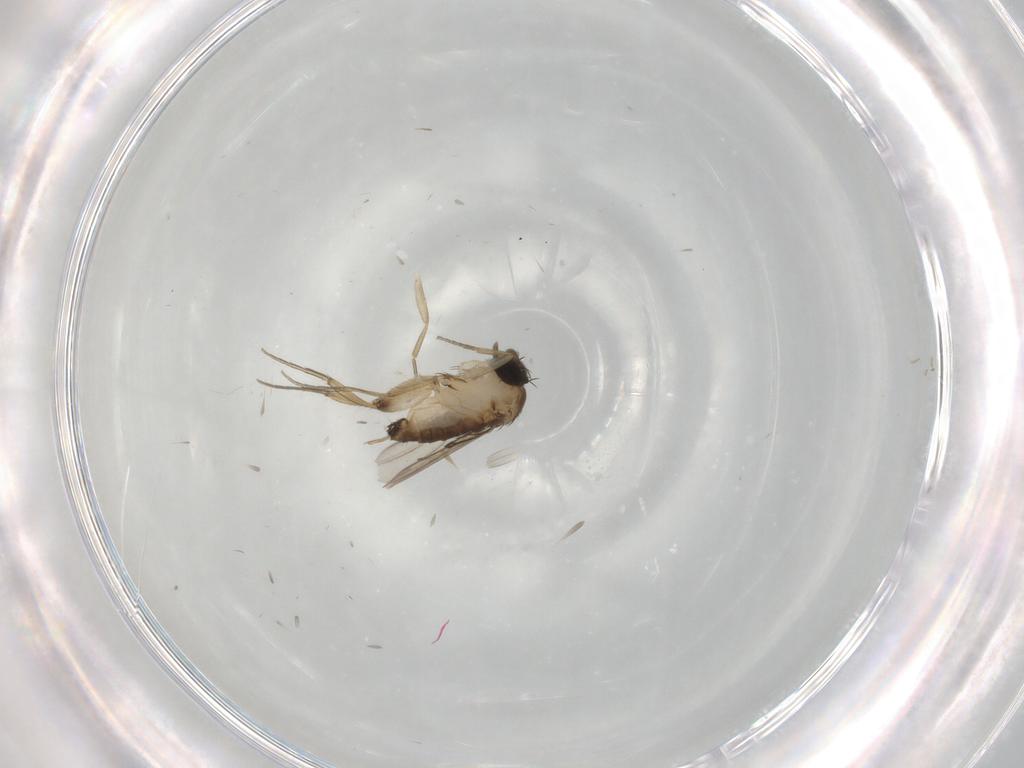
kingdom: Animalia
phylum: Arthropoda
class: Insecta
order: Diptera
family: Phoridae
